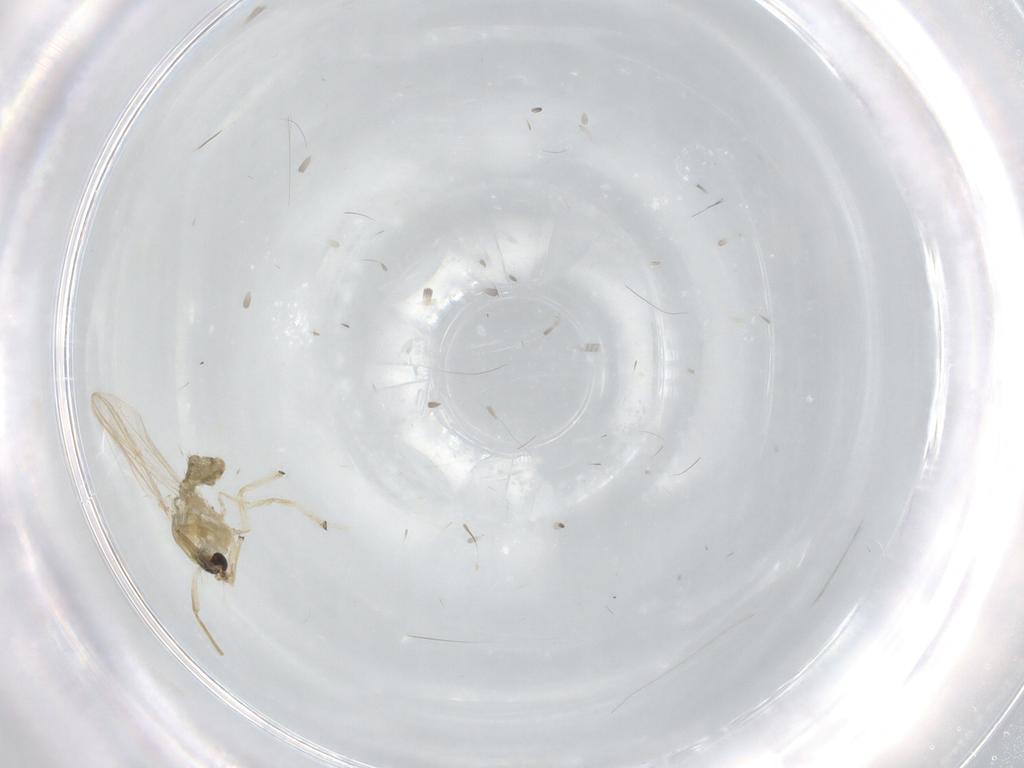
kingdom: Animalia
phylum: Arthropoda
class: Insecta
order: Diptera
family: Chironomidae
